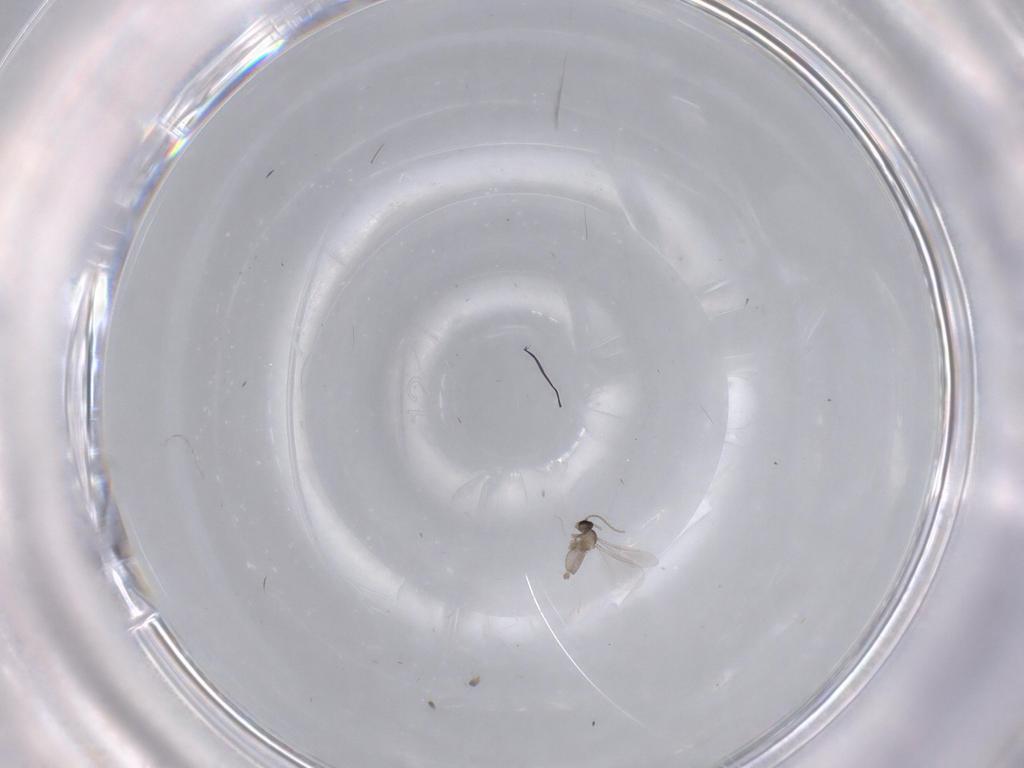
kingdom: Animalia
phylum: Arthropoda
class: Insecta
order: Diptera
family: Cecidomyiidae
